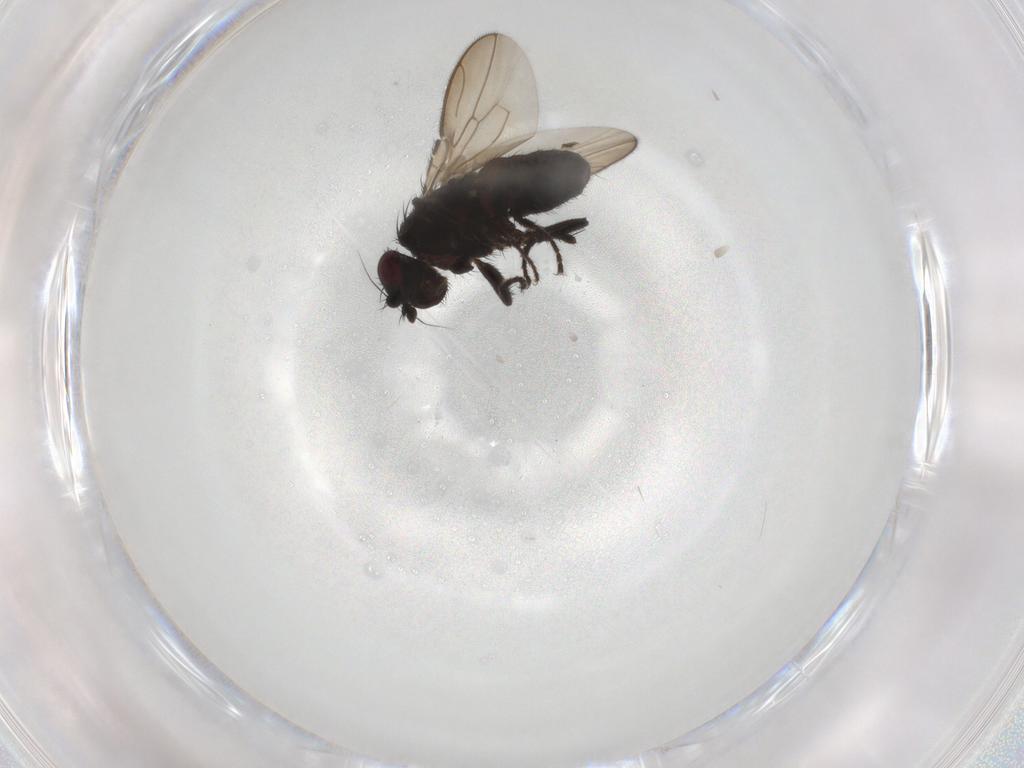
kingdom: Animalia
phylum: Arthropoda
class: Insecta
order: Diptera
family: Sphaeroceridae
